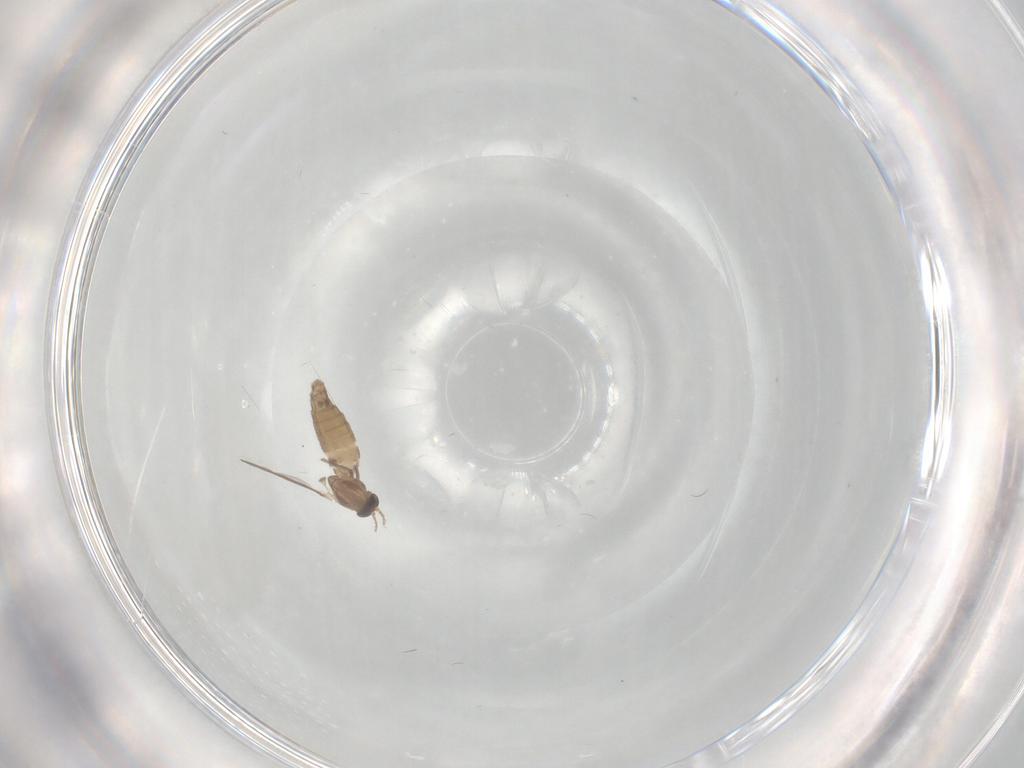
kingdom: Animalia
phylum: Arthropoda
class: Insecta
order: Diptera
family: Chironomidae
